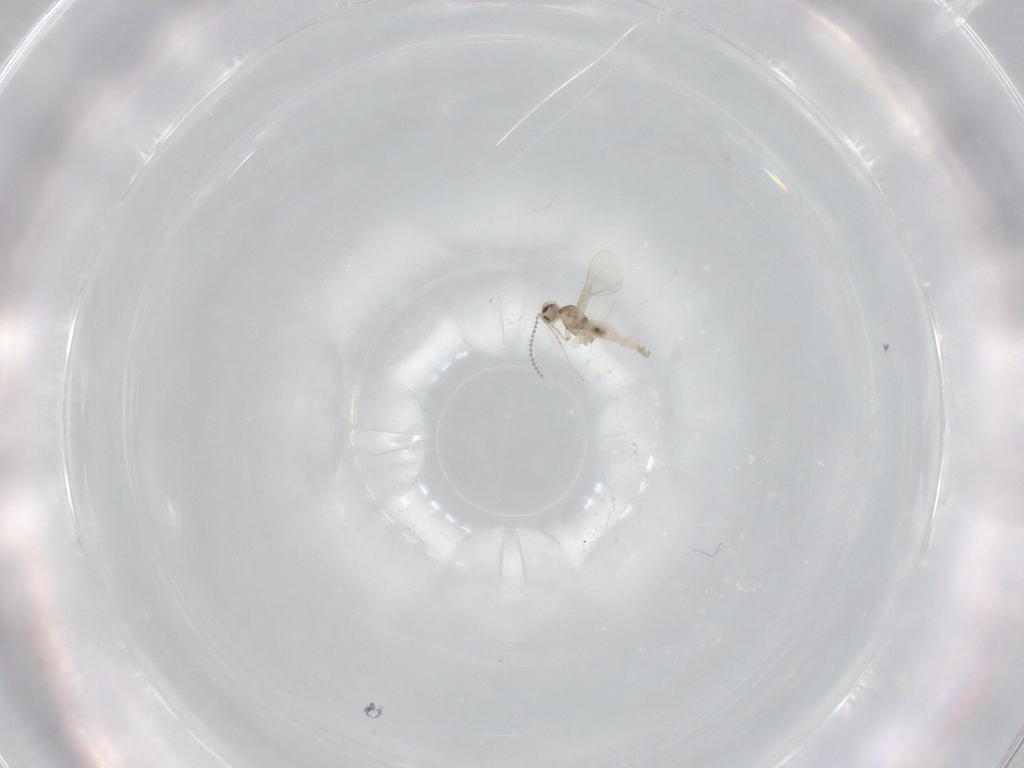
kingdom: Animalia
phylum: Arthropoda
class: Insecta
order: Diptera
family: Cecidomyiidae
